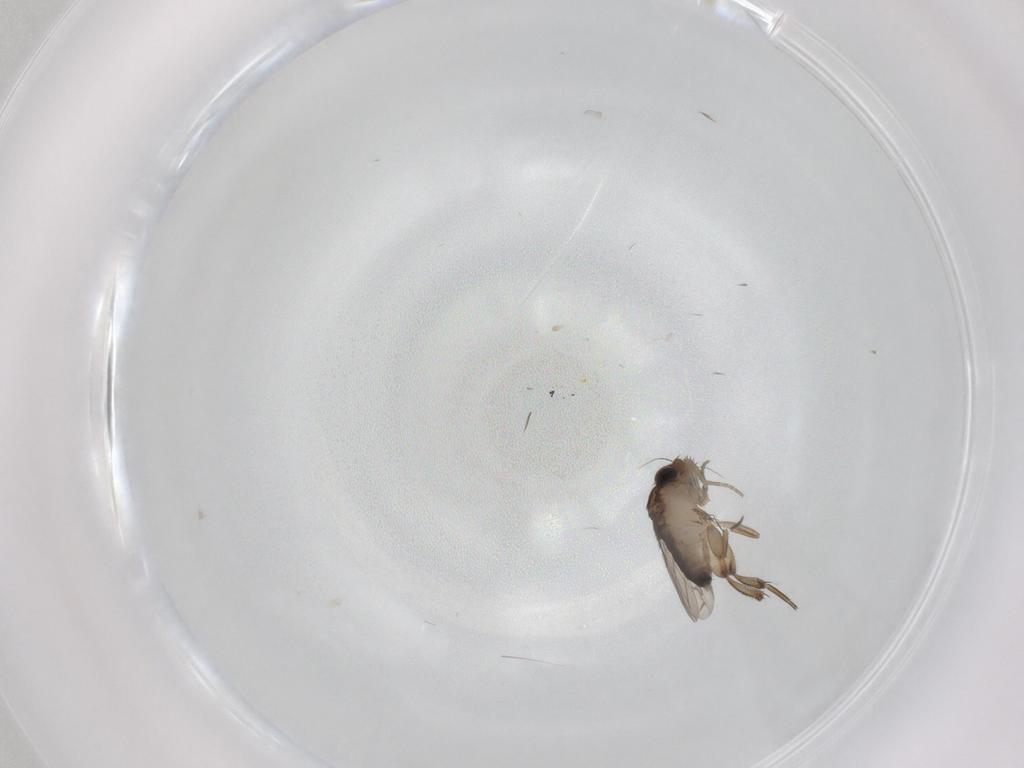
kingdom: Animalia
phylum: Arthropoda
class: Insecta
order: Diptera
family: Phoridae
